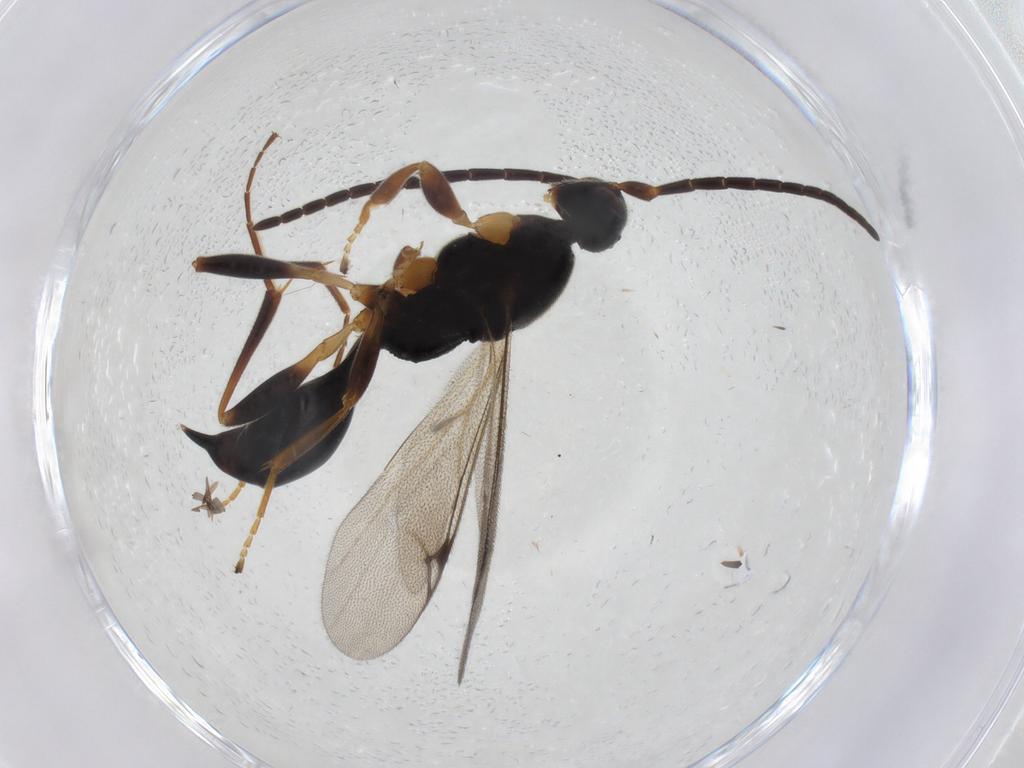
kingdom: Animalia
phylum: Arthropoda
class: Insecta
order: Hymenoptera
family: Proctotrupidae
